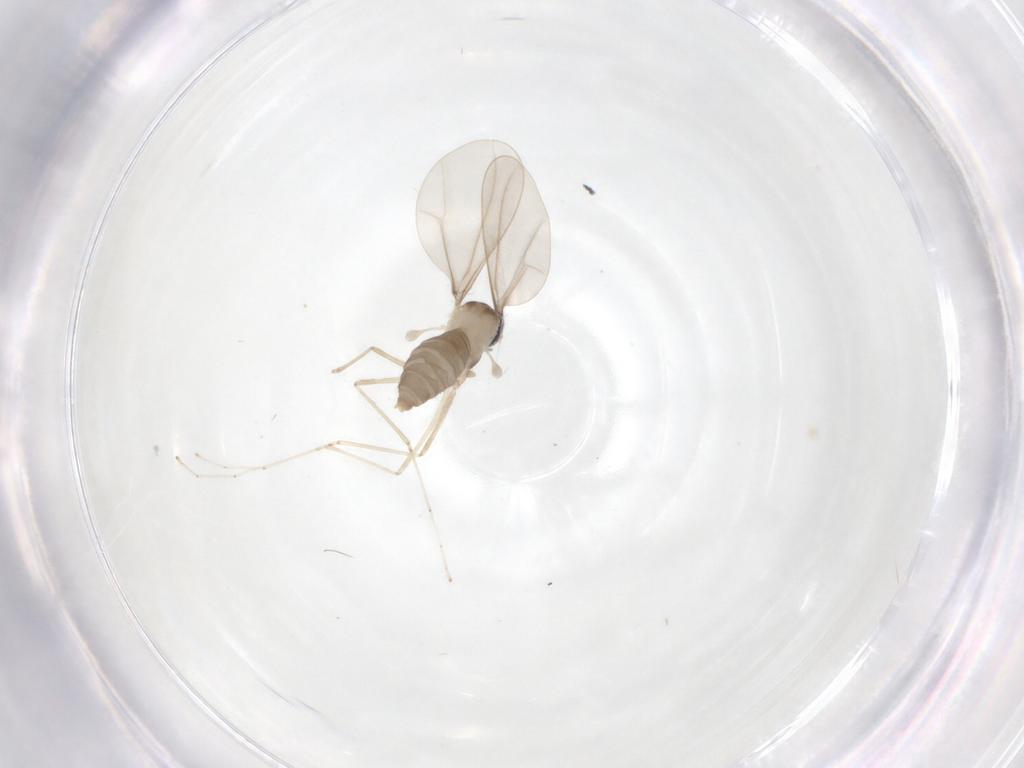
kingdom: Animalia
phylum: Arthropoda
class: Insecta
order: Diptera
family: Cecidomyiidae
